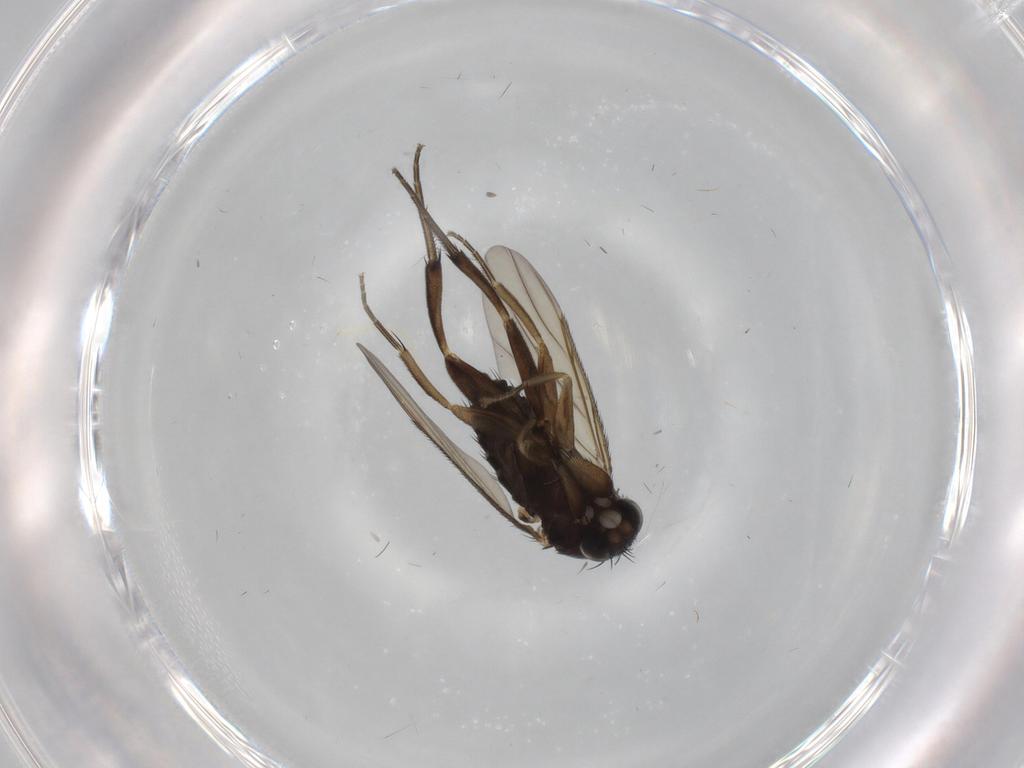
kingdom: Animalia
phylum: Arthropoda
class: Insecta
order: Diptera
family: Chironomidae
